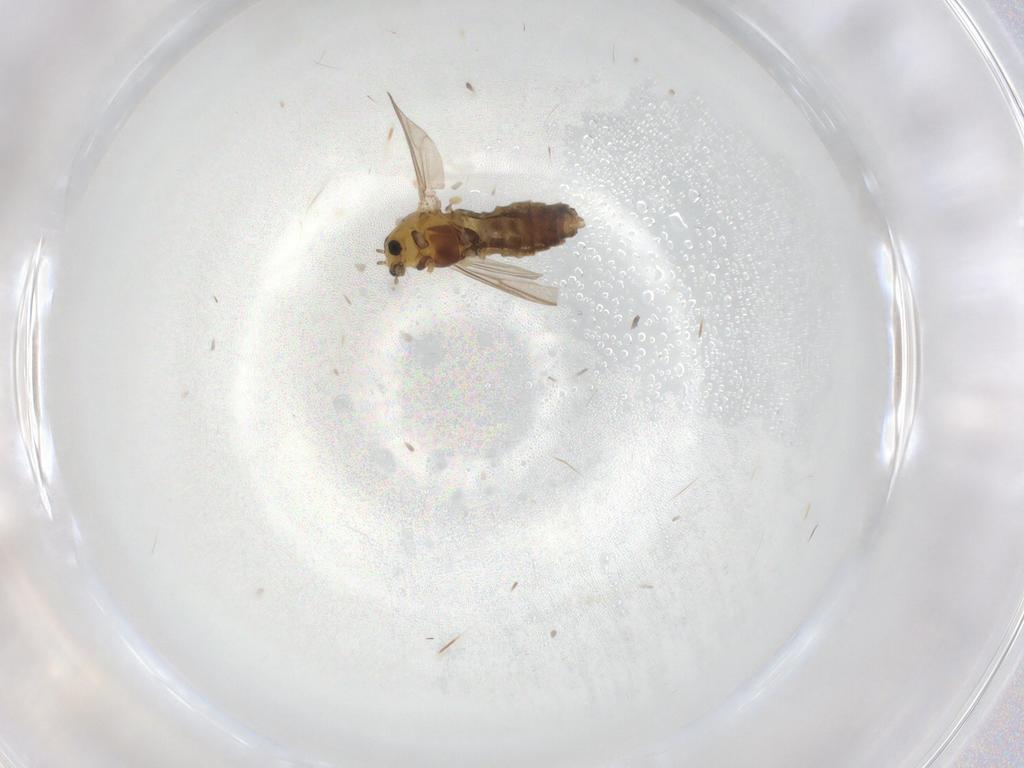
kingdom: Animalia
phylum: Arthropoda
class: Insecta
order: Diptera
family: Chironomidae
